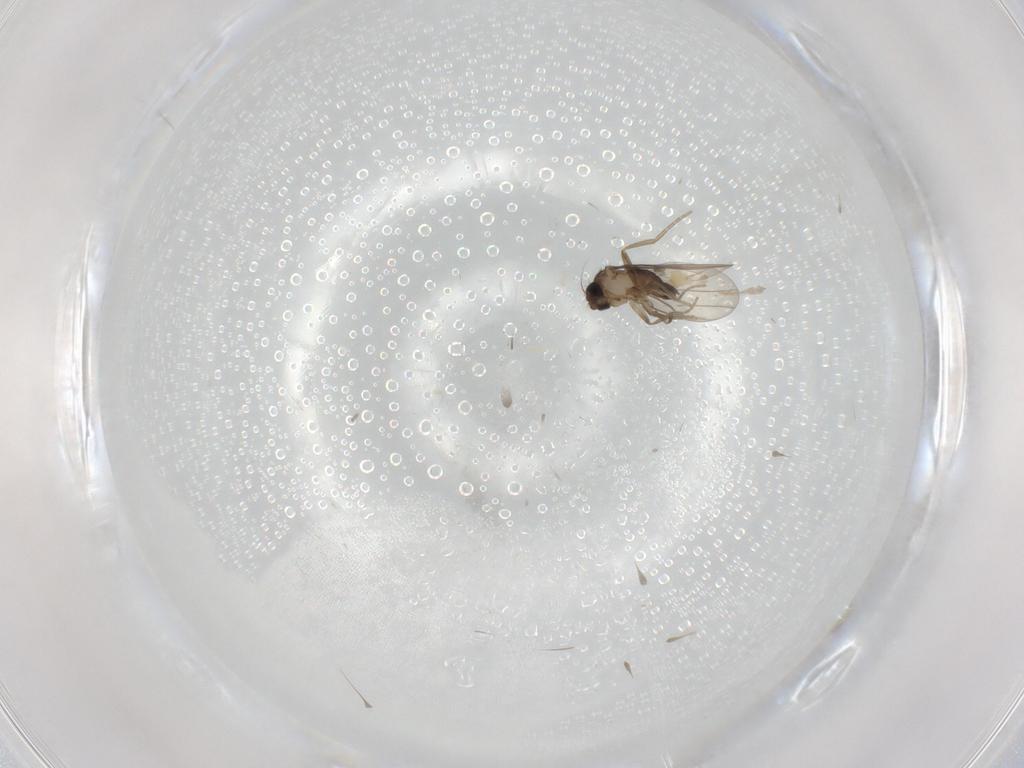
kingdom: Animalia
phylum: Arthropoda
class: Insecta
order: Diptera
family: Phoridae
